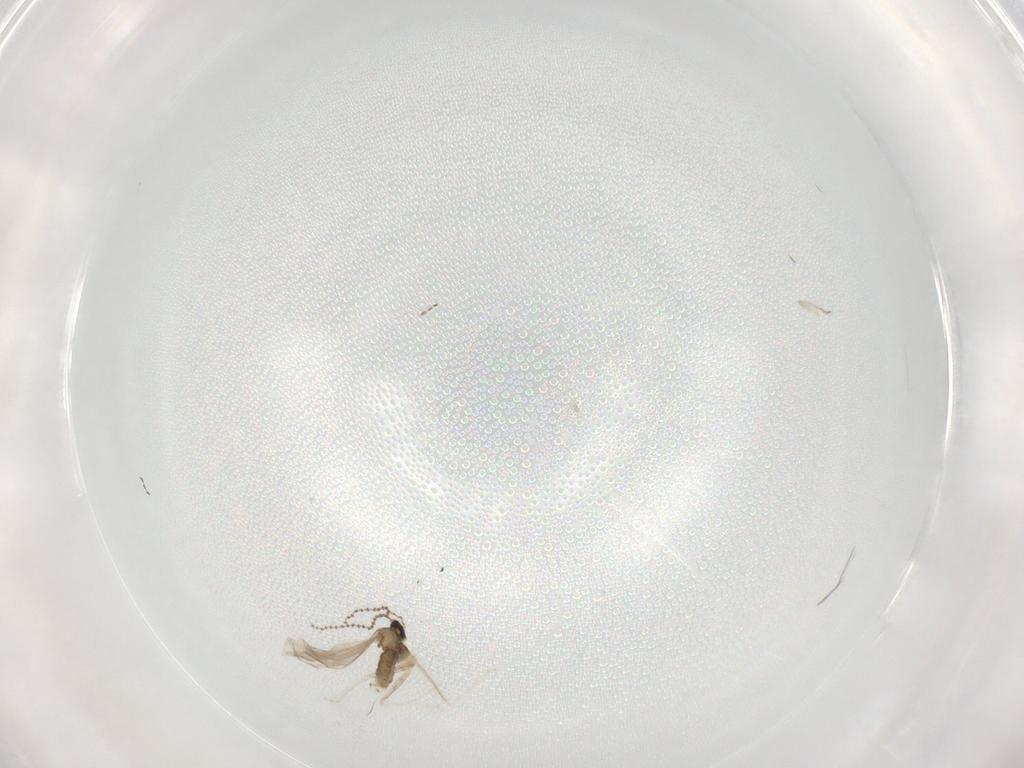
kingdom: Animalia
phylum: Arthropoda
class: Insecta
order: Diptera
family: Cecidomyiidae
